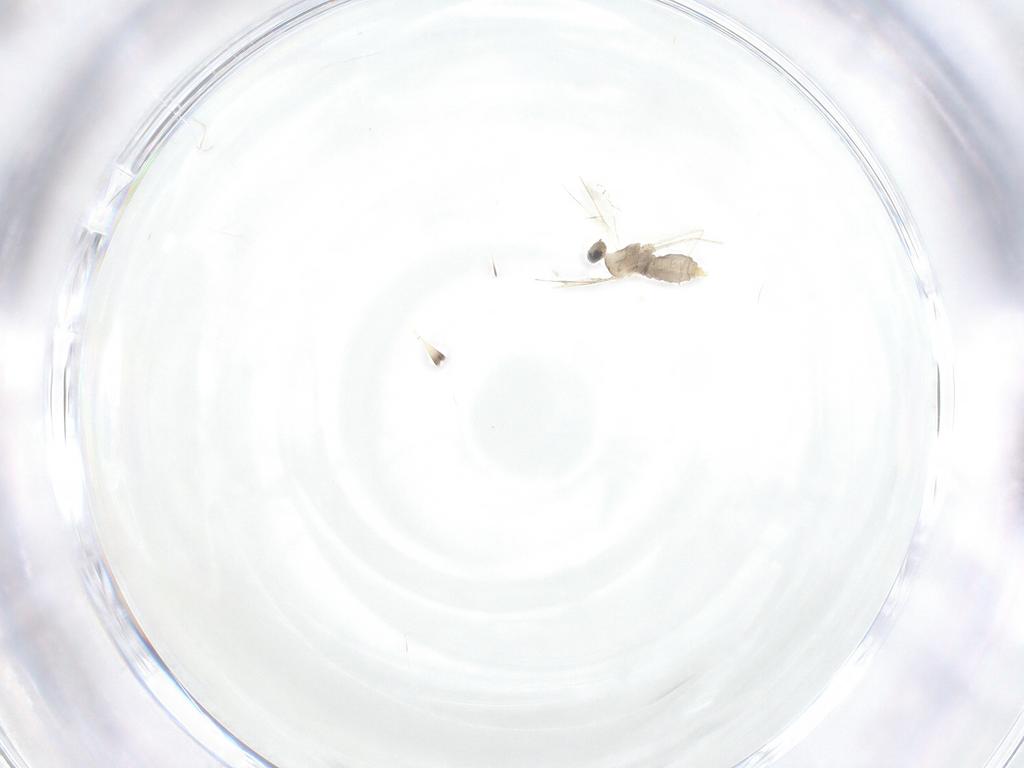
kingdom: Animalia
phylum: Arthropoda
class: Insecta
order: Diptera
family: Cecidomyiidae
